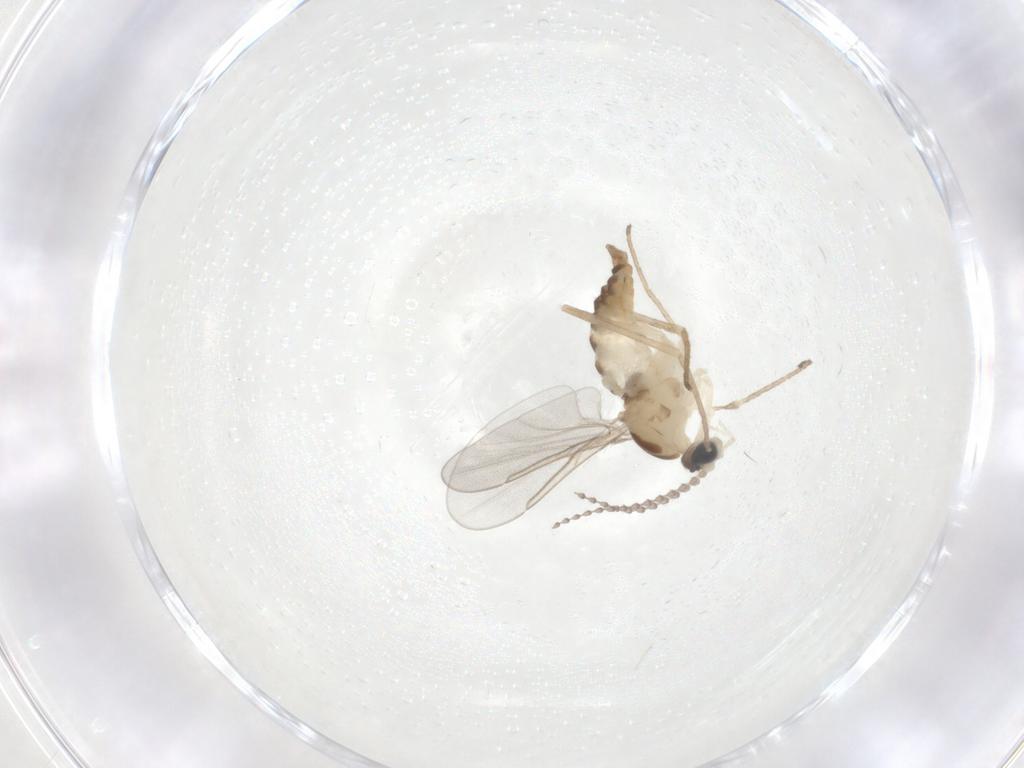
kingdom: Animalia
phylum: Arthropoda
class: Insecta
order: Diptera
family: Cecidomyiidae
